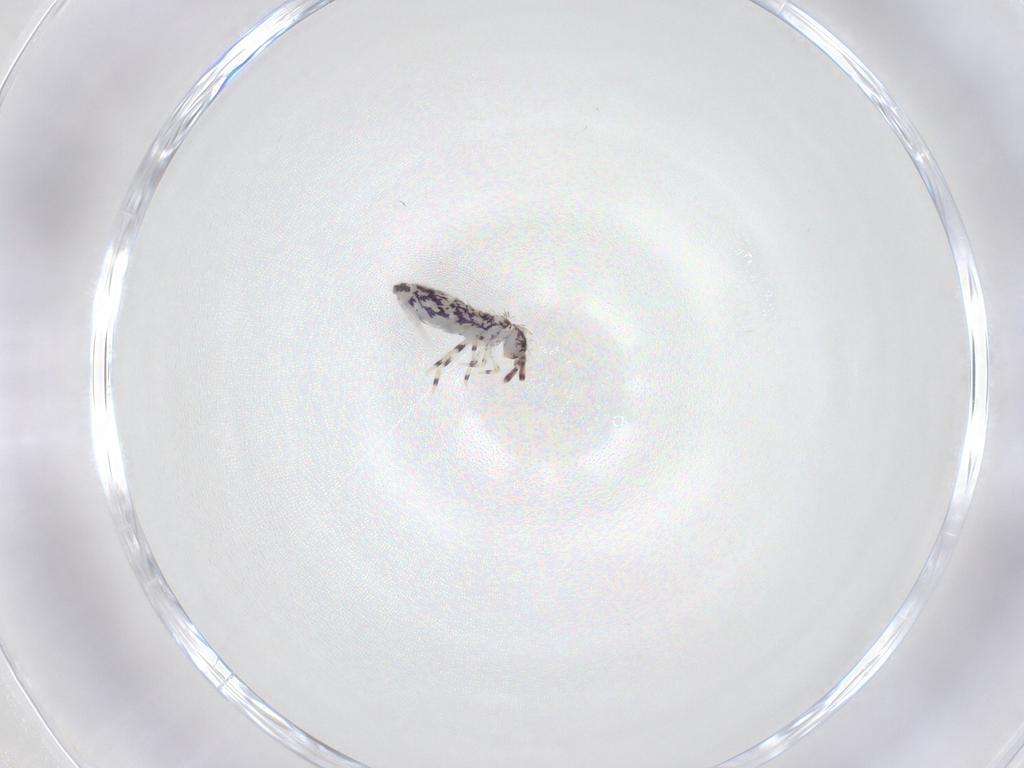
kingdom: Animalia
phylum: Arthropoda
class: Collembola
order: Entomobryomorpha
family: Entomobryidae
